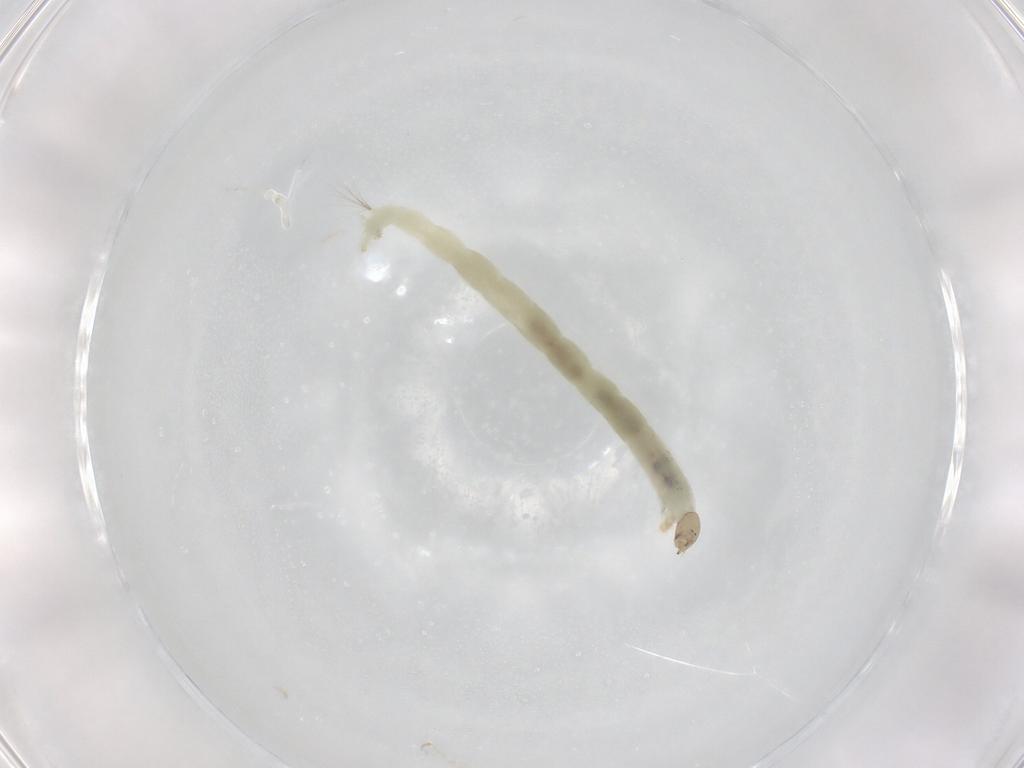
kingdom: Animalia
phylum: Arthropoda
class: Insecta
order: Diptera
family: Chironomidae
